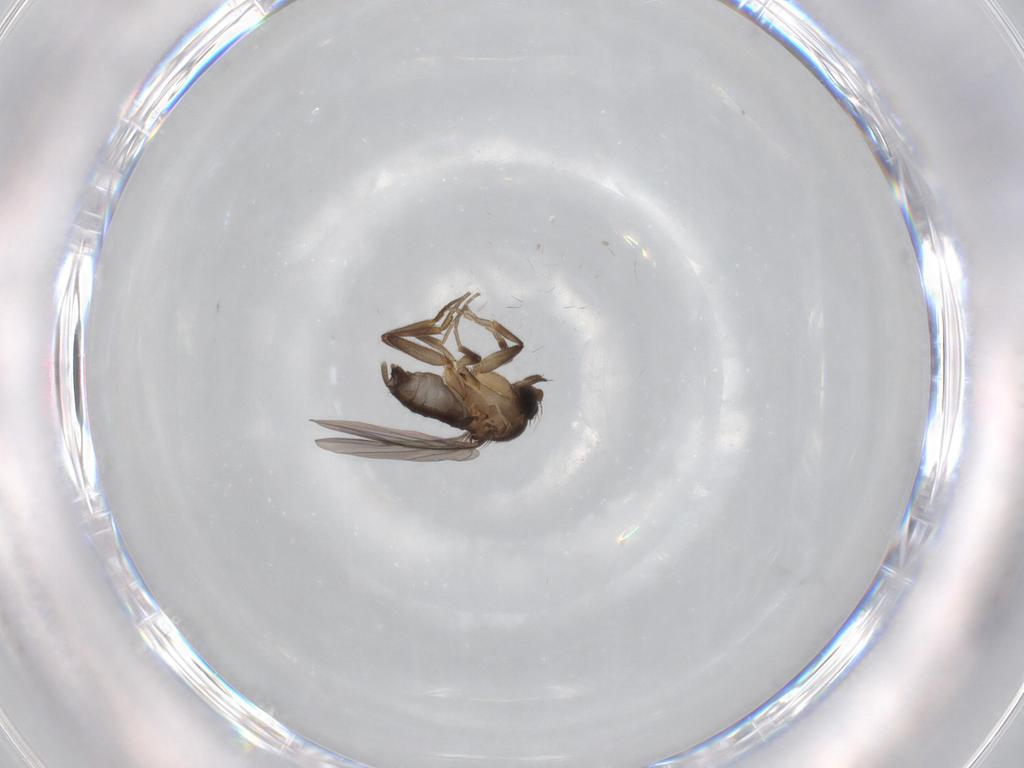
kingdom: Animalia
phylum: Arthropoda
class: Insecta
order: Diptera
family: Phoridae
